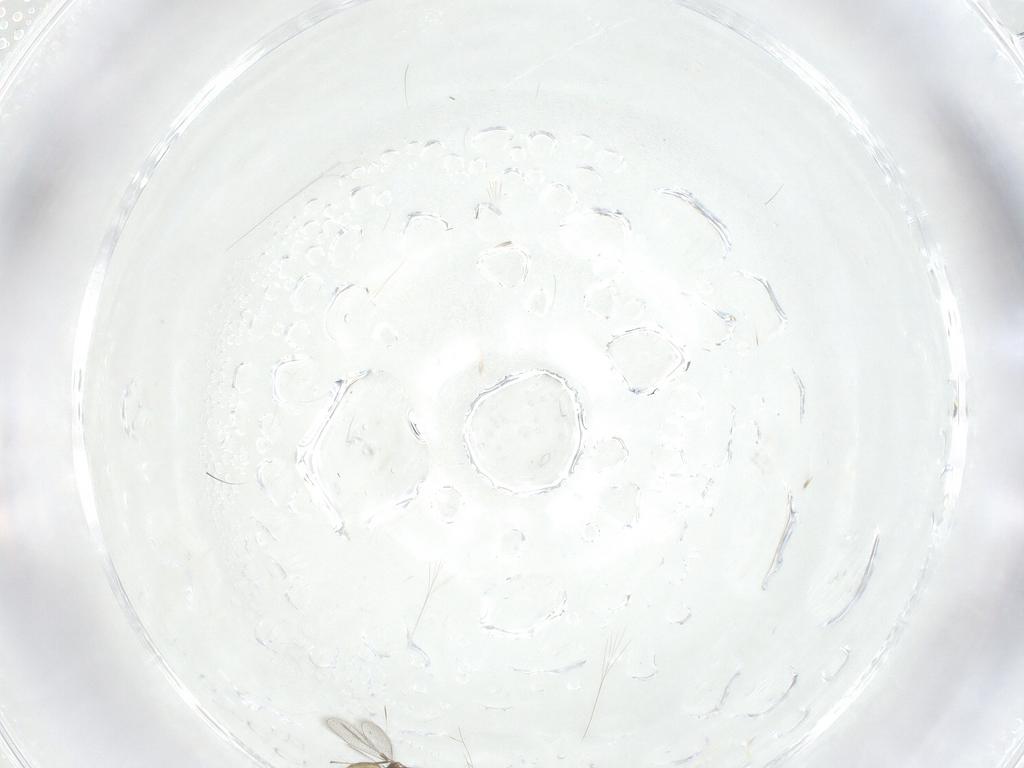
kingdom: Animalia
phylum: Arthropoda
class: Insecta
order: Hymenoptera
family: Mymaridae
